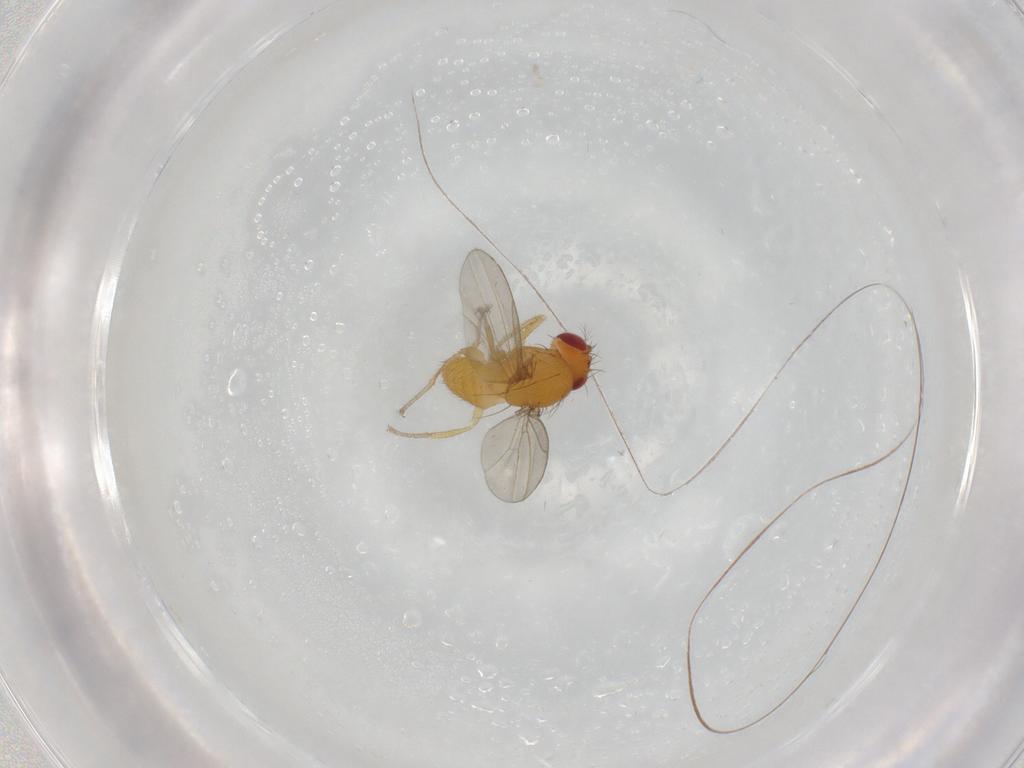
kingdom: Animalia
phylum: Arthropoda
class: Insecta
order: Diptera
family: Drosophilidae
